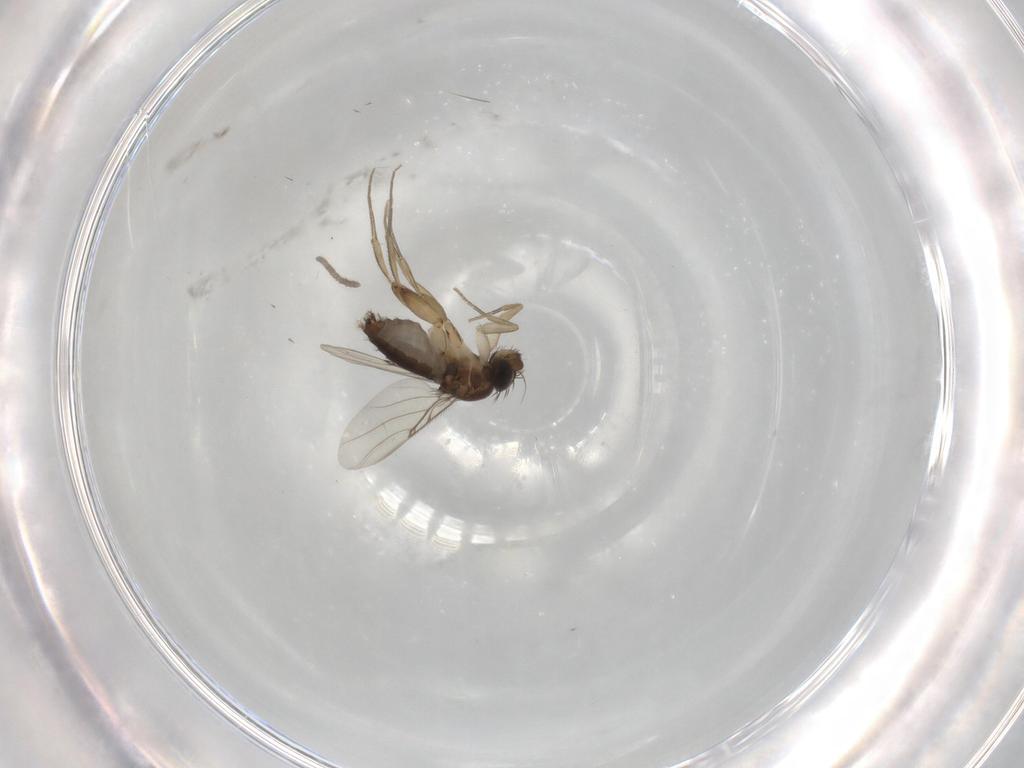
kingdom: Animalia
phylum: Arthropoda
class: Insecta
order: Diptera
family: Phoridae
